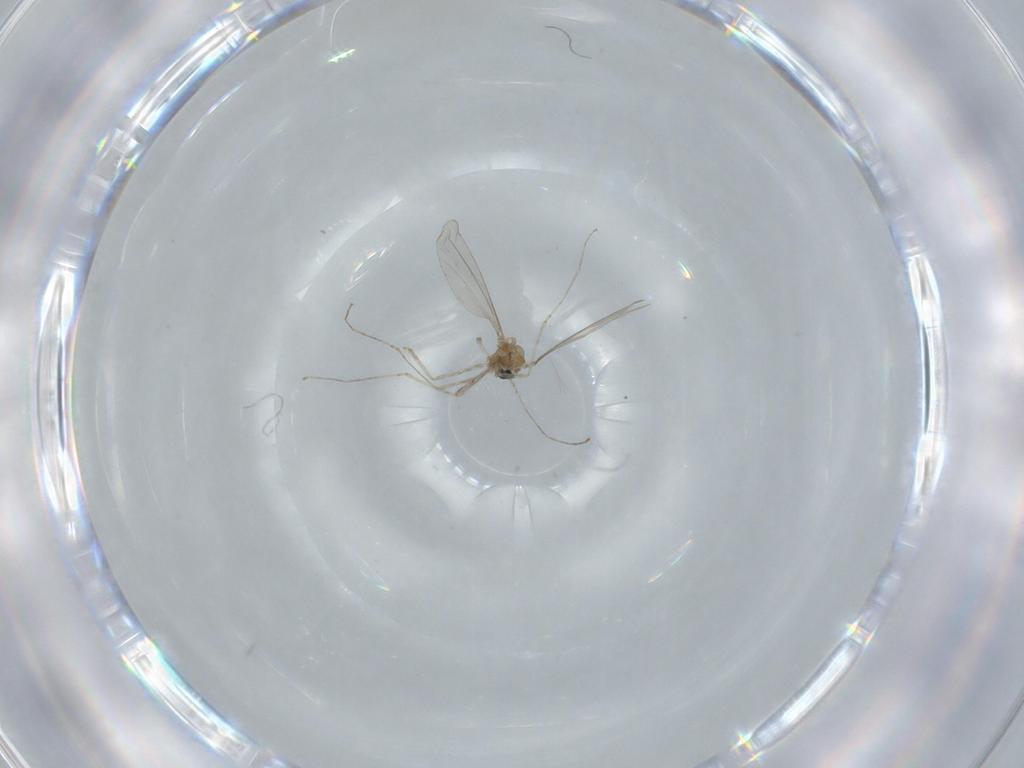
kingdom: Animalia
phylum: Arthropoda
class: Insecta
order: Diptera
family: Cecidomyiidae
